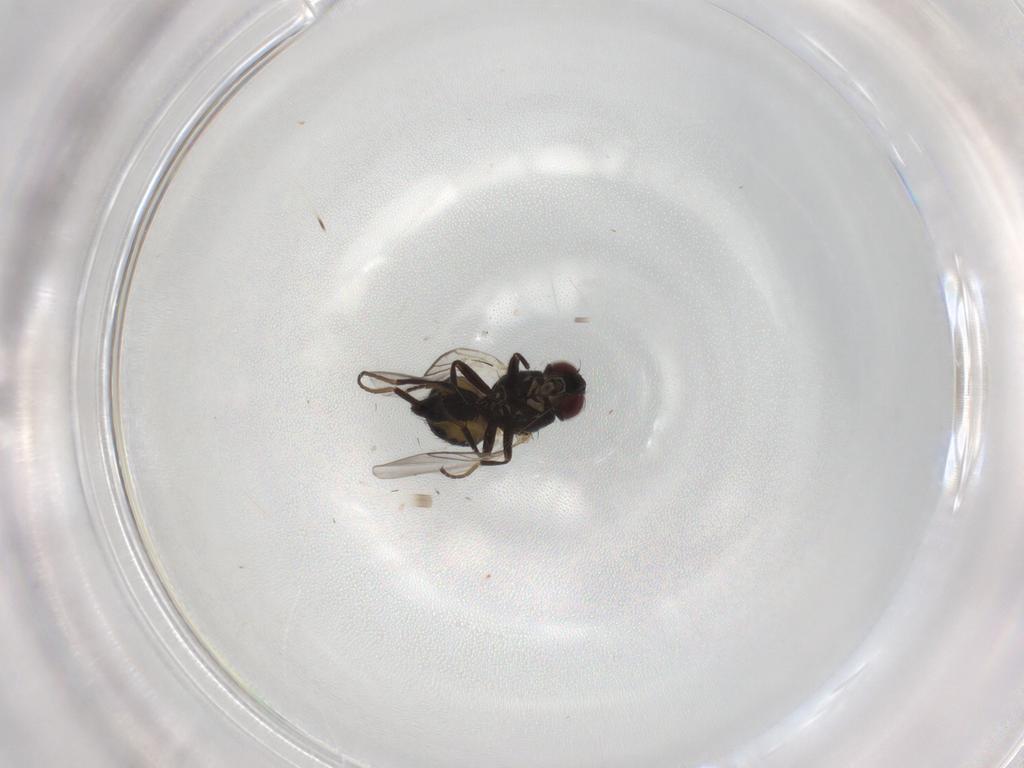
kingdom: Animalia
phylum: Arthropoda
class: Insecta
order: Diptera
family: Agromyzidae
